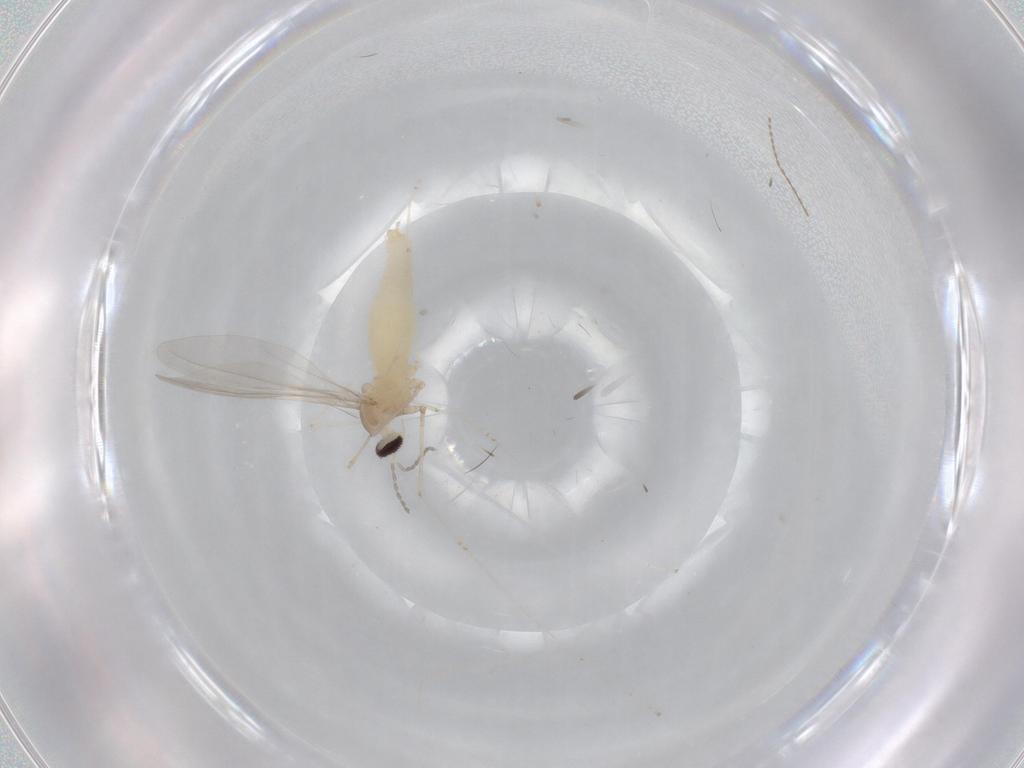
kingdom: Animalia
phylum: Arthropoda
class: Insecta
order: Diptera
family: Cecidomyiidae
